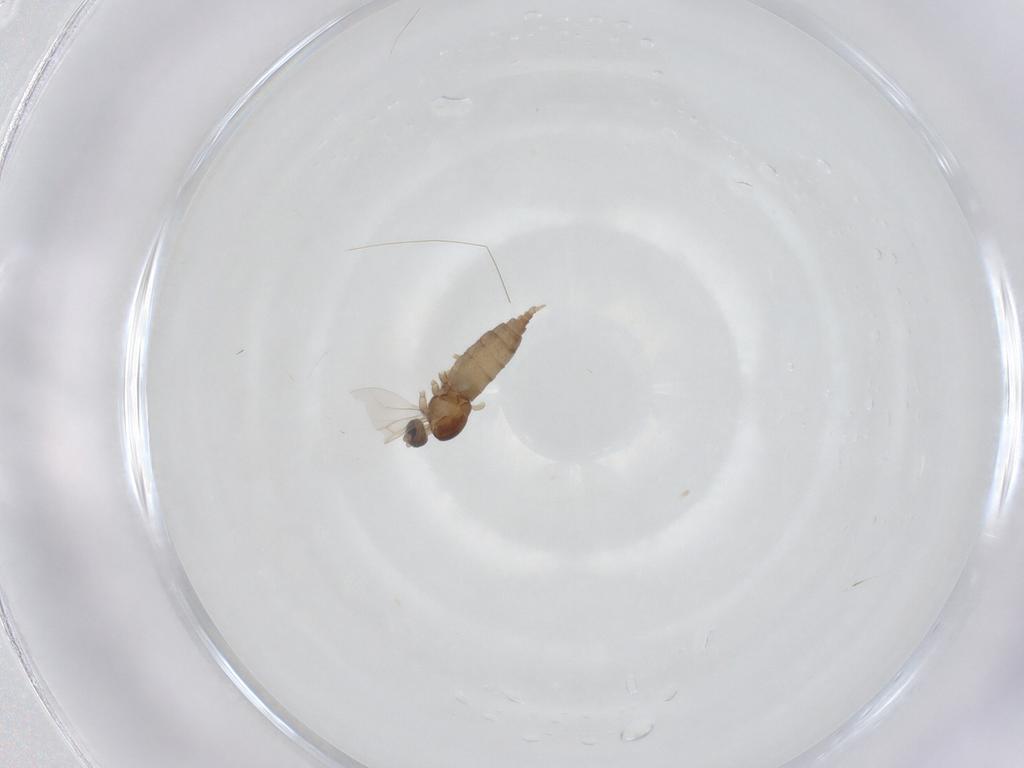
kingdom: Animalia
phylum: Arthropoda
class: Insecta
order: Diptera
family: Cecidomyiidae
